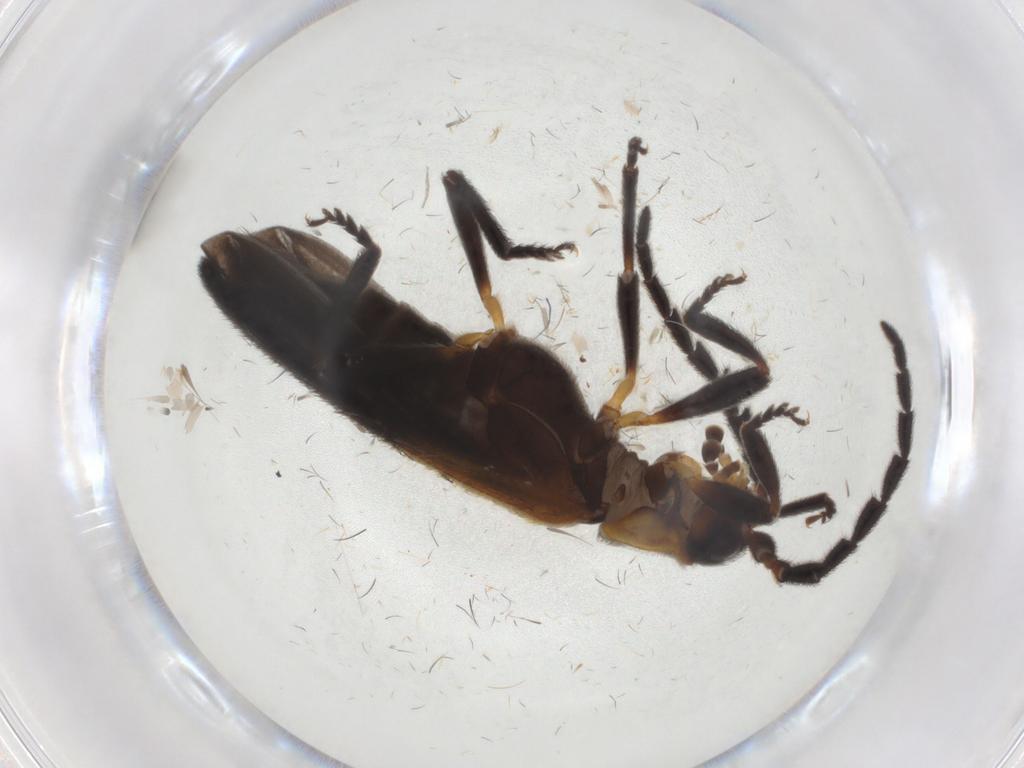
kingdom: Animalia
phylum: Arthropoda
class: Insecta
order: Coleoptera
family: Lycidae
